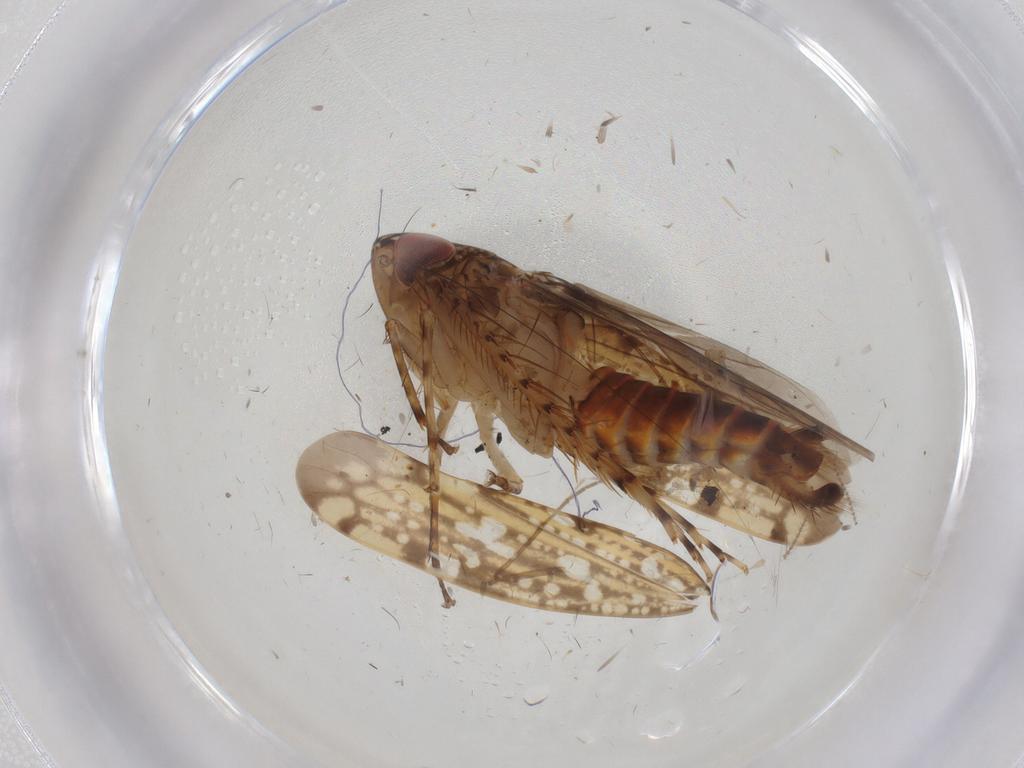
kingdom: Animalia
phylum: Arthropoda
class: Insecta
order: Hemiptera
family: Cicadellidae
